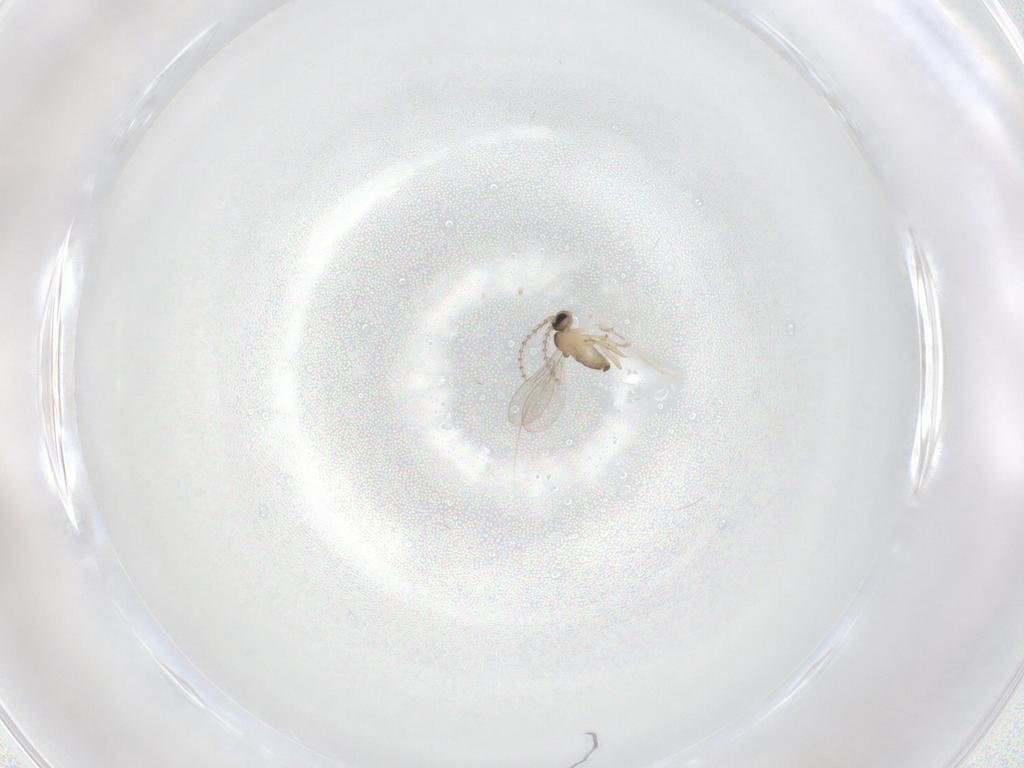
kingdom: Animalia
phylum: Arthropoda
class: Insecta
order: Diptera
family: Cecidomyiidae
